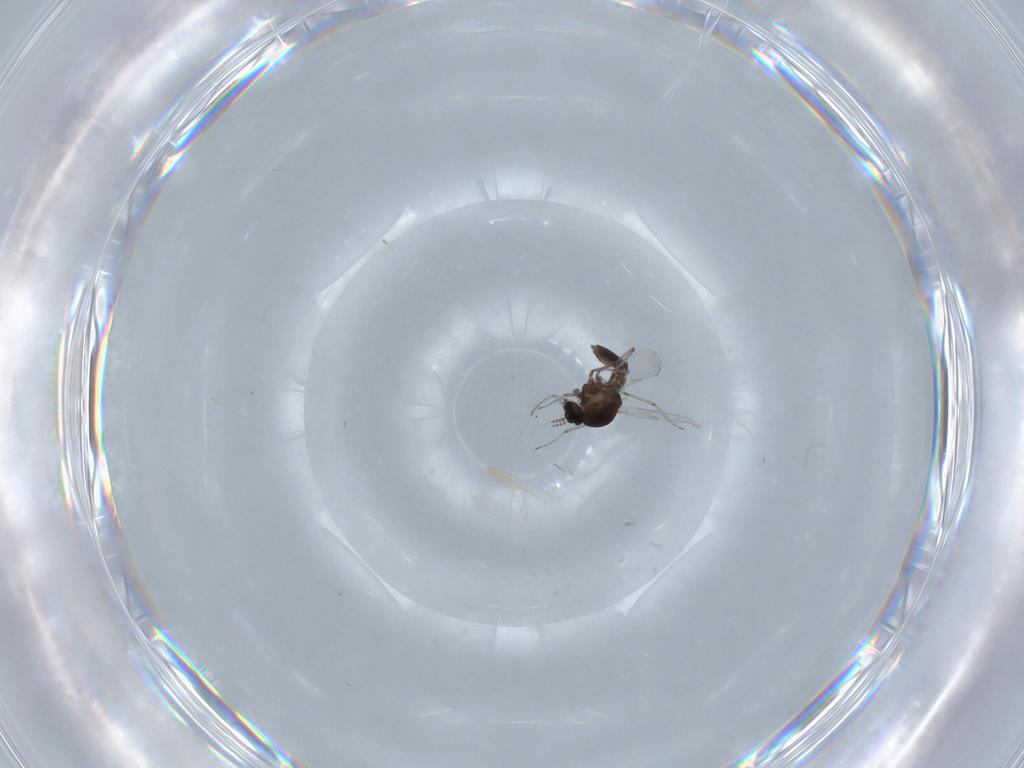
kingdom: Animalia
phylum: Arthropoda
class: Insecta
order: Diptera
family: Ceratopogonidae
